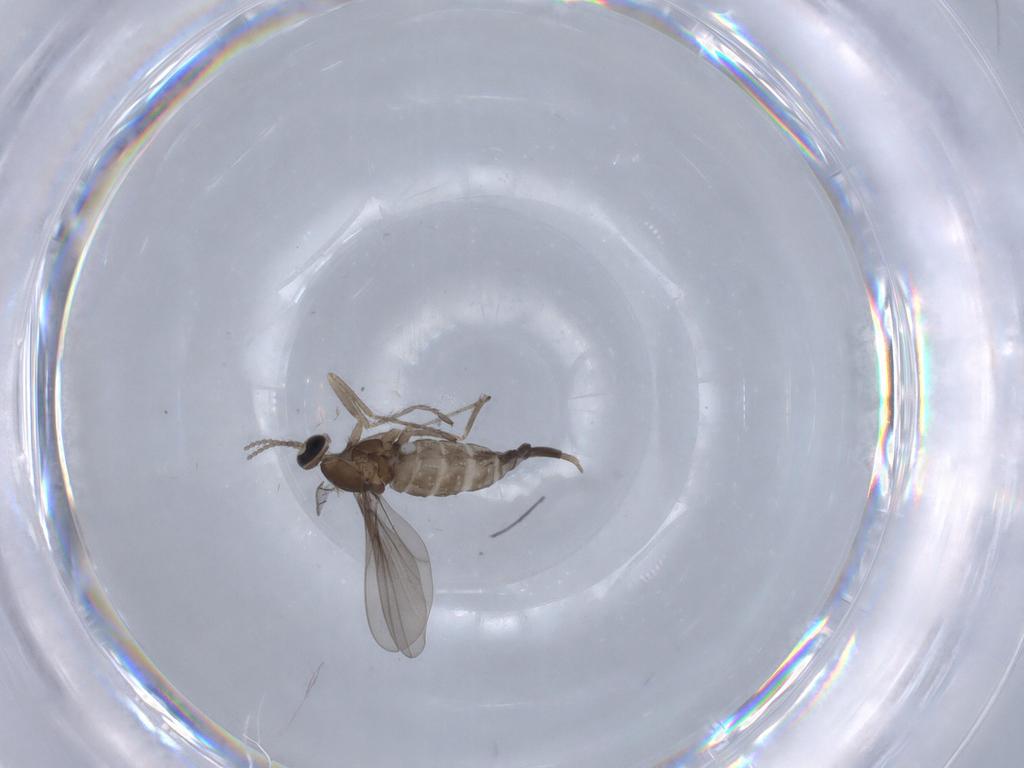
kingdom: Animalia
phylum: Arthropoda
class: Insecta
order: Diptera
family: Cecidomyiidae
